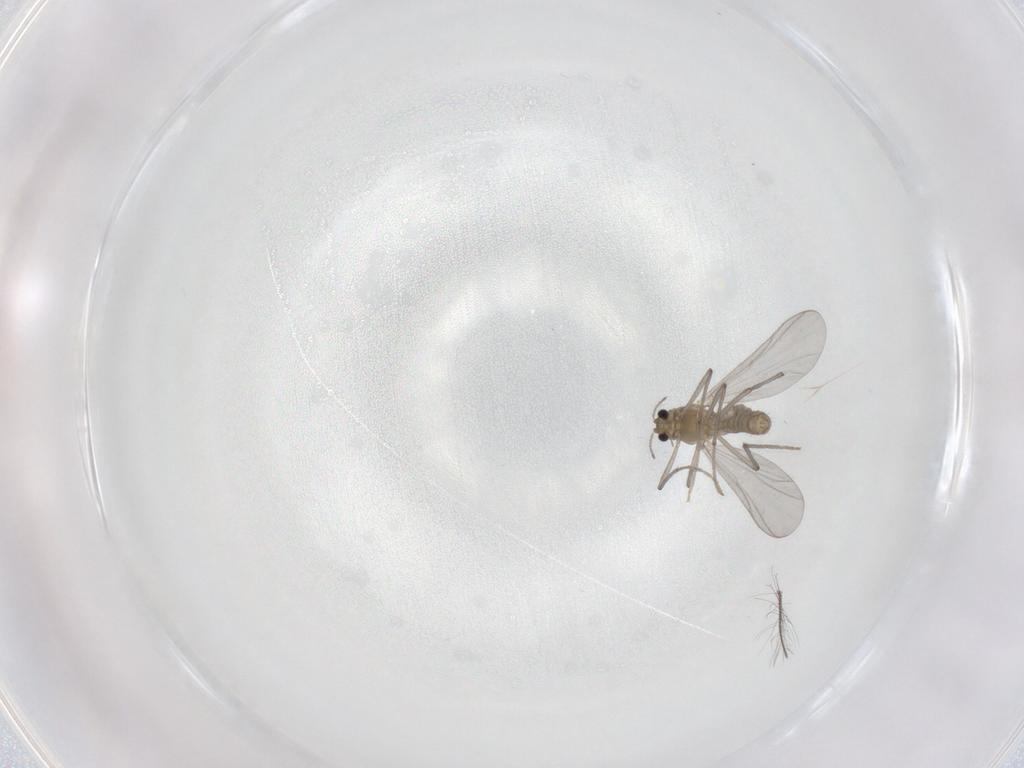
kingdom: Animalia
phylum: Arthropoda
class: Insecta
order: Diptera
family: Chironomidae
